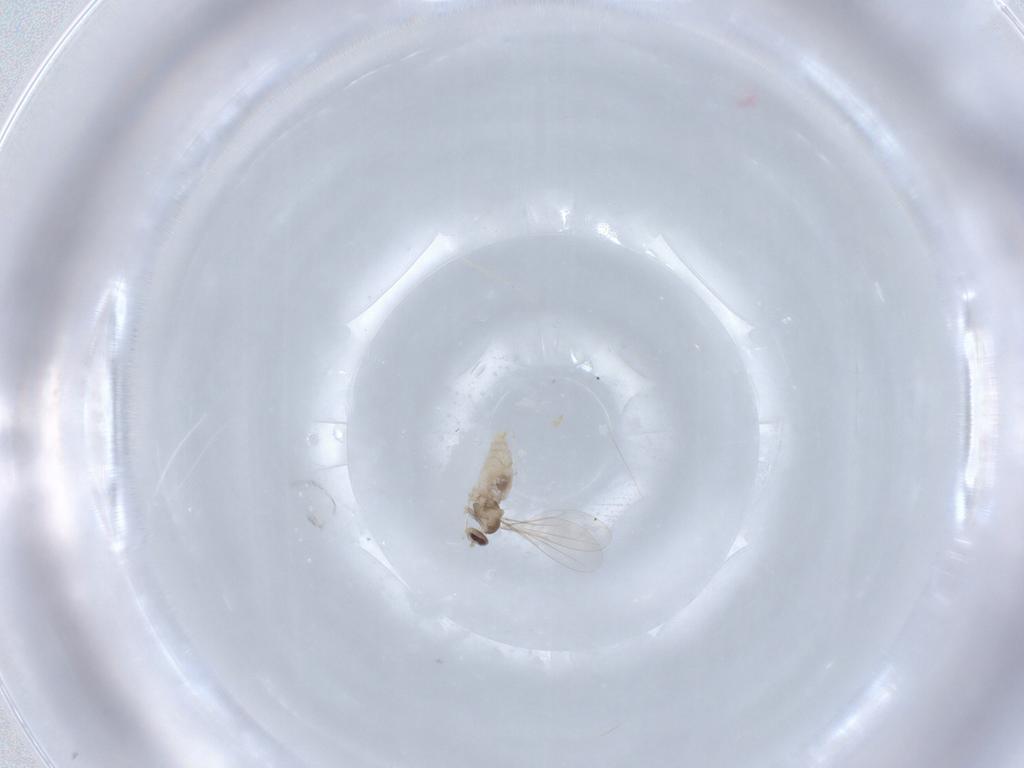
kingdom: Animalia
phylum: Arthropoda
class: Insecta
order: Diptera
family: Cecidomyiidae
